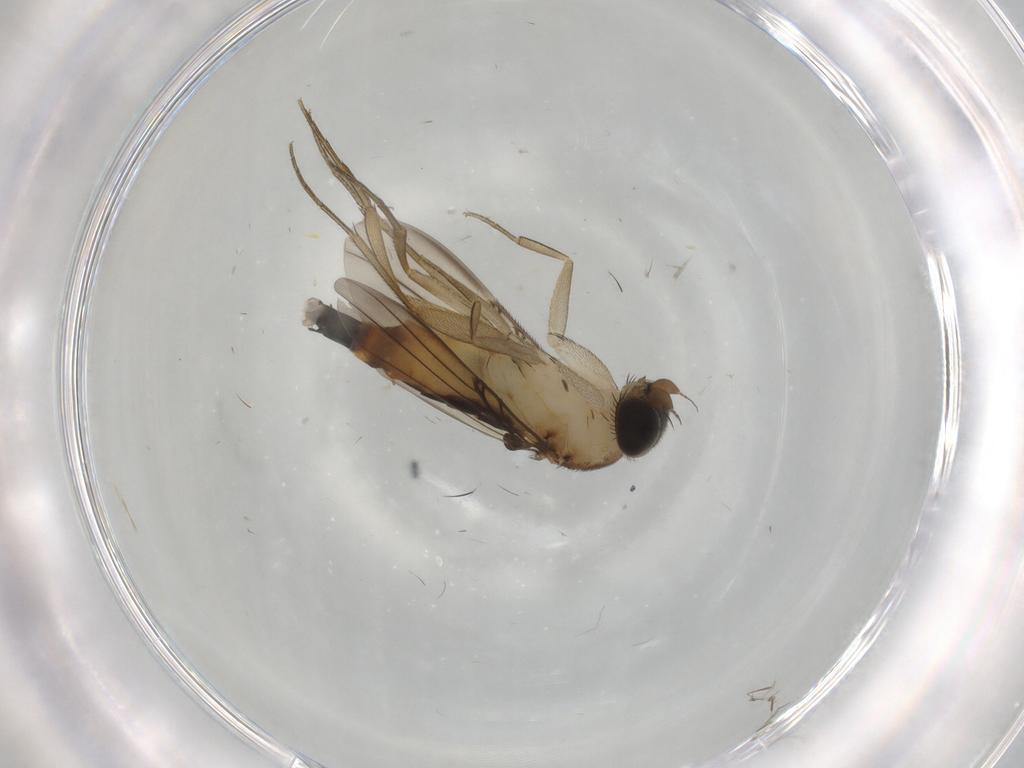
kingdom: Animalia
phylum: Arthropoda
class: Insecta
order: Diptera
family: Phoridae
